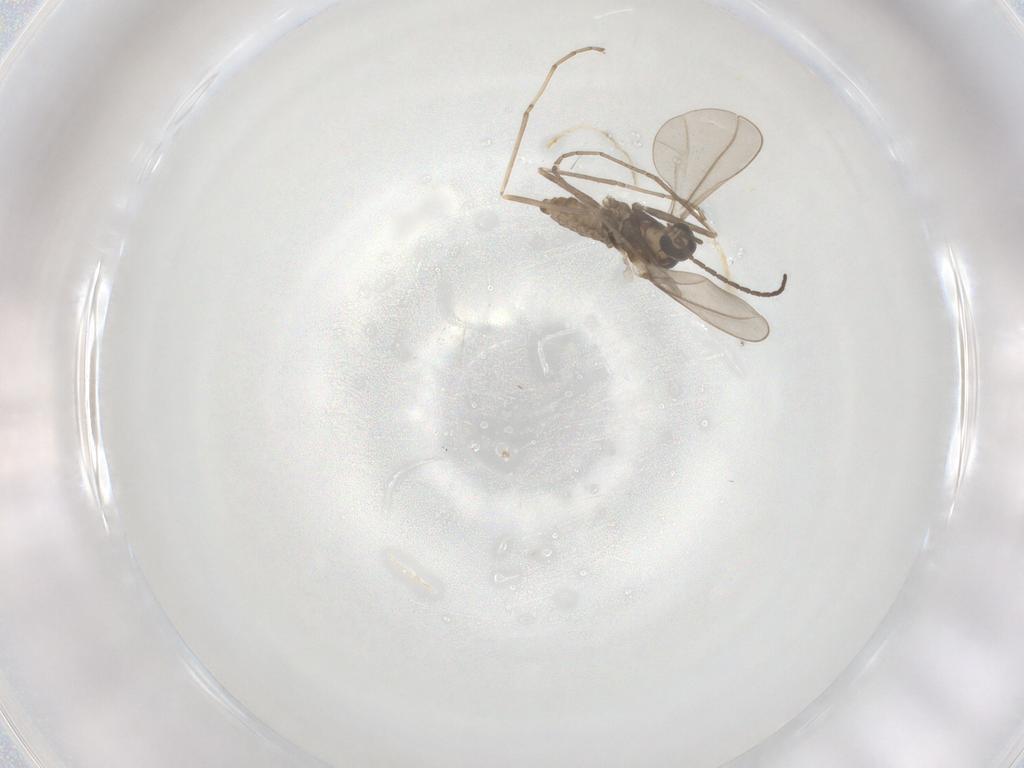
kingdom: Animalia
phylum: Arthropoda
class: Insecta
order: Diptera
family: Cecidomyiidae
